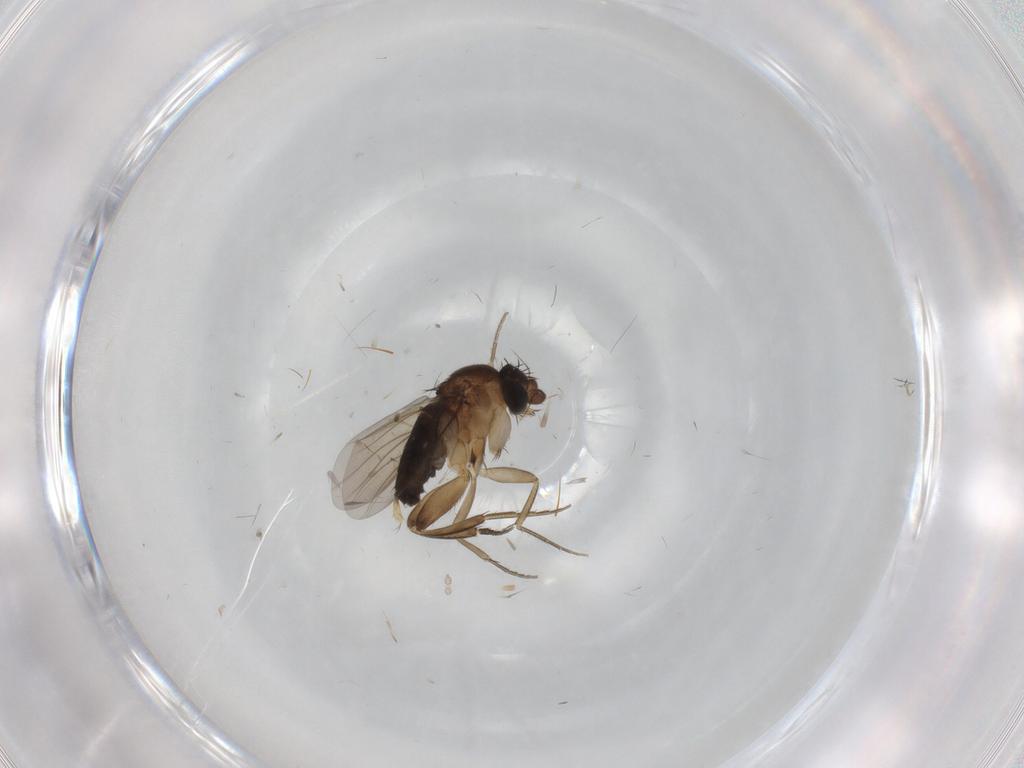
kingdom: Animalia
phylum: Arthropoda
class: Insecta
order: Diptera
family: Phoridae
